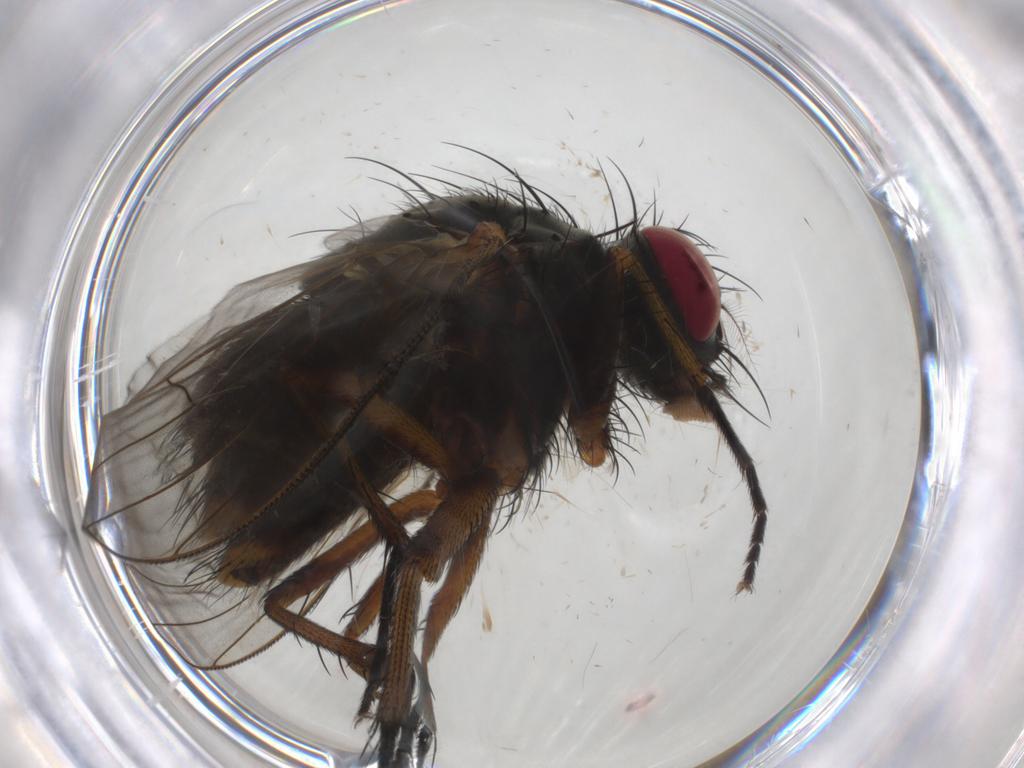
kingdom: Animalia
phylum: Arthropoda
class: Insecta
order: Diptera
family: Muscidae
